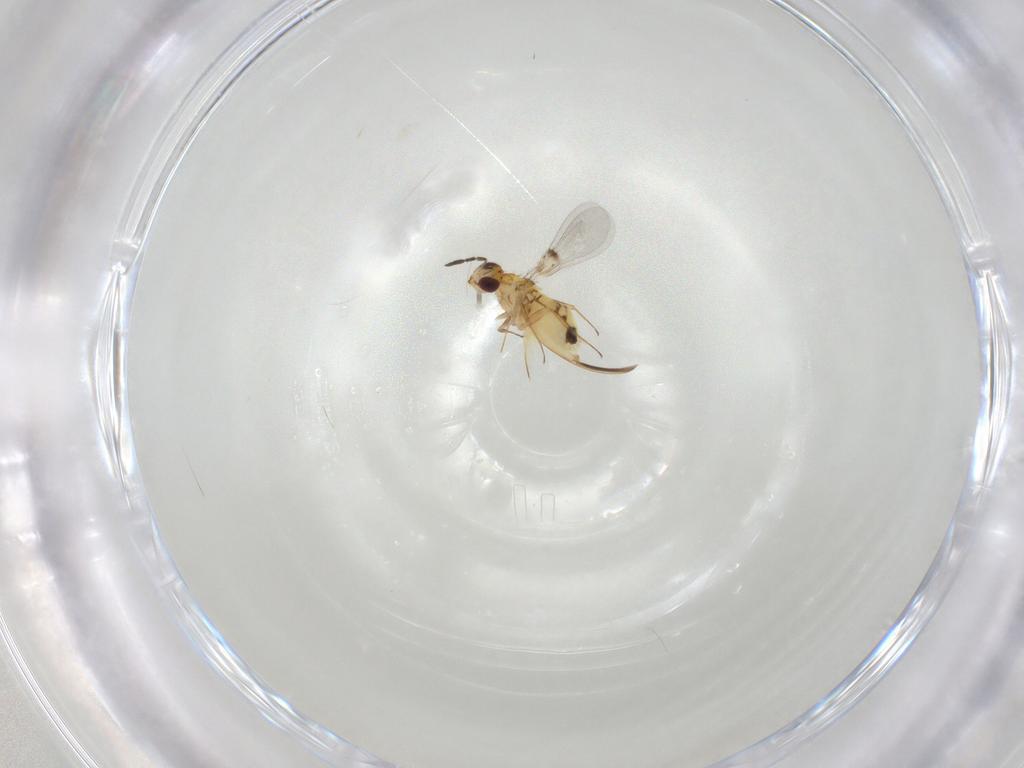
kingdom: Animalia
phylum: Arthropoda
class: Insecta
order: Hymenoptera
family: Trichogrammatidae
